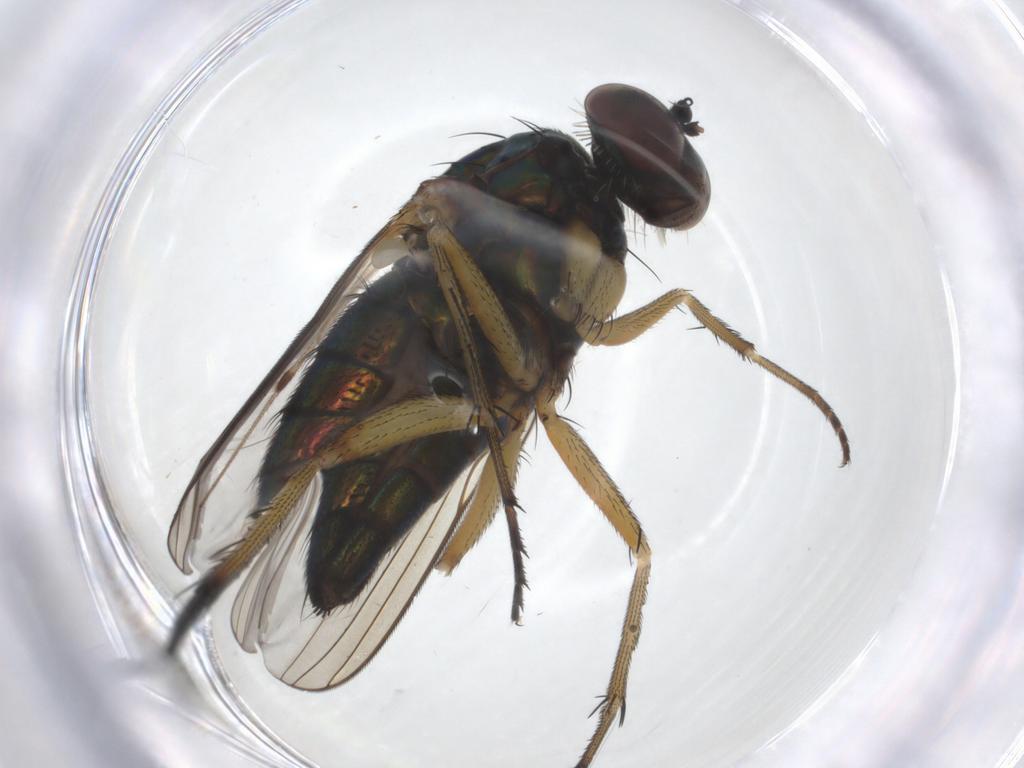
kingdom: Animalia
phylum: Arthropoda
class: Insecta
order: Diptera
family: Dolichopodidae
